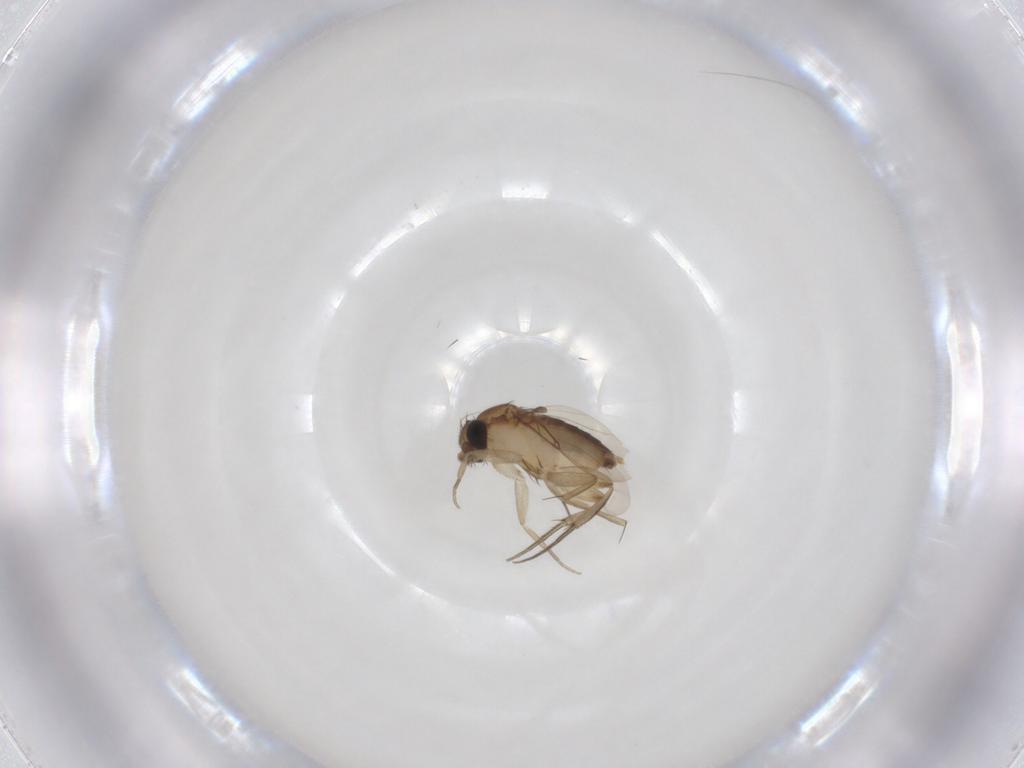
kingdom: Animalia
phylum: Arthropoda
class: Insecta
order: Diptera
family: Phoridae
